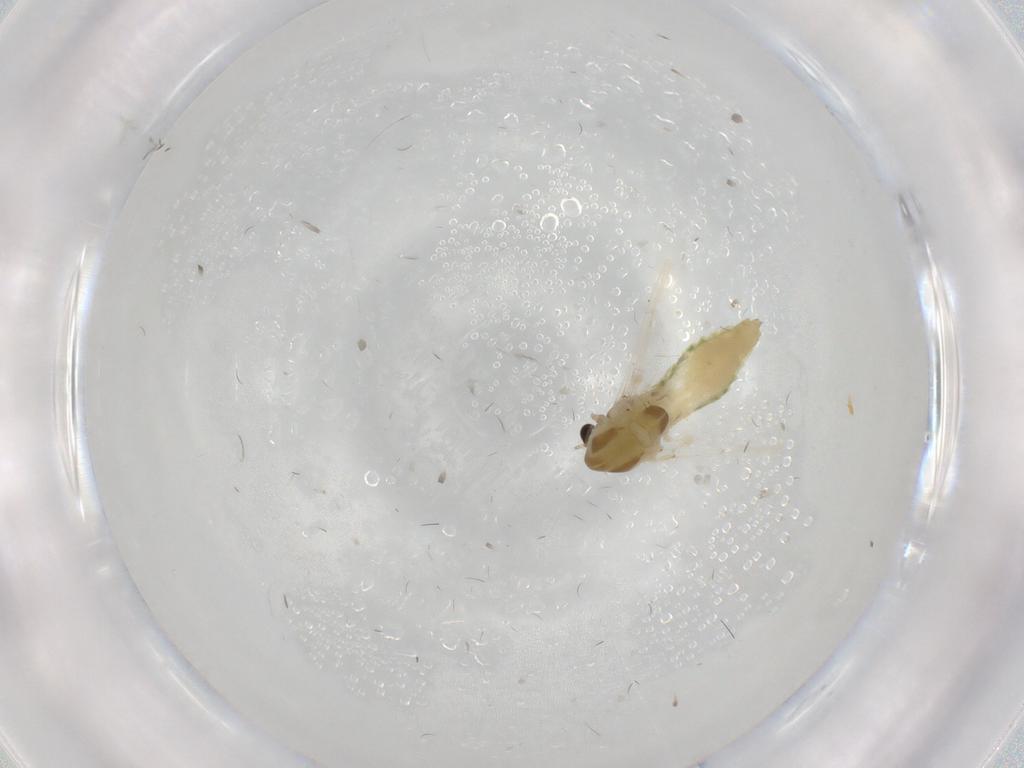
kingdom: Animalia
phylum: Arthropoda
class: Insecta
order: Diptera
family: Chironomidae
